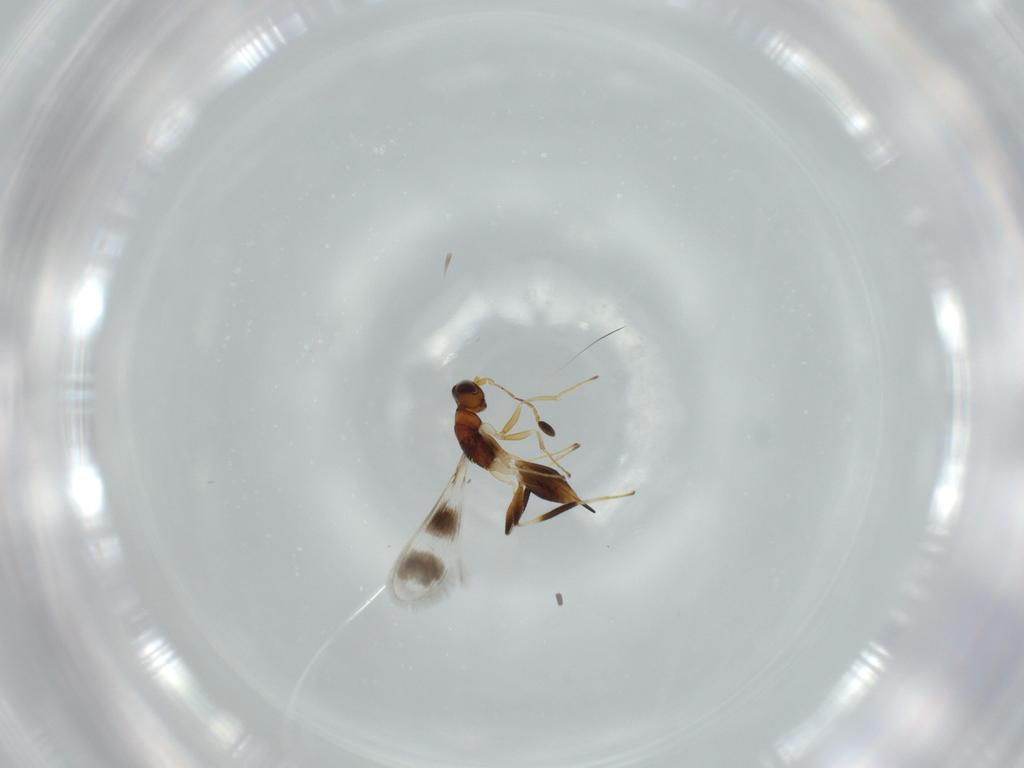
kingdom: Animalia
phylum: Arthropoda
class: Insecta
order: Hymenoptera
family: Mymaridae
